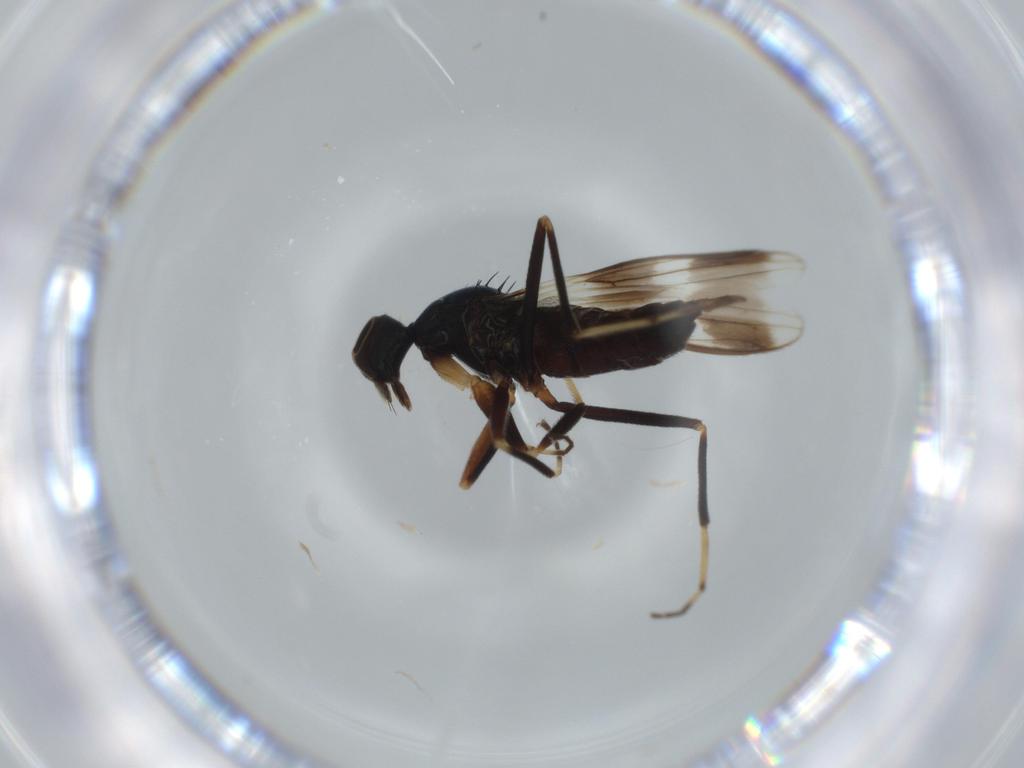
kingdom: Animalia
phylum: Arthropoda
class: Insecta
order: Diptera
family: Hybotidae
